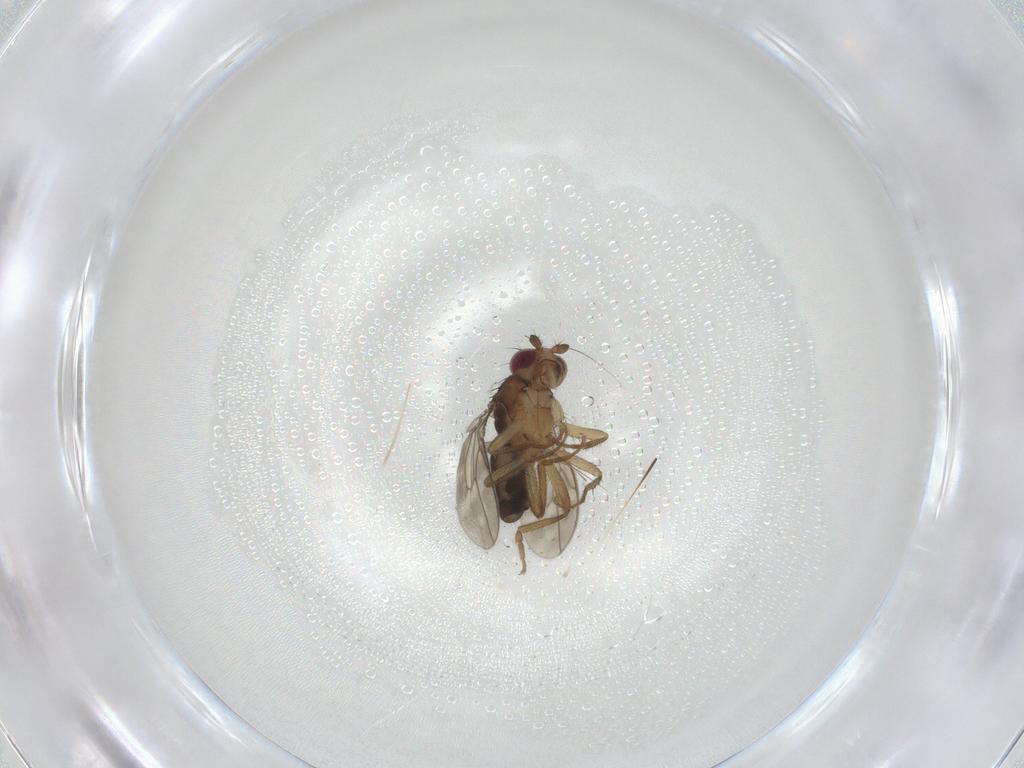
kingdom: Animalia
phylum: Arthropoda
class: Insecta
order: Diptera
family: Sphaeroceridae
